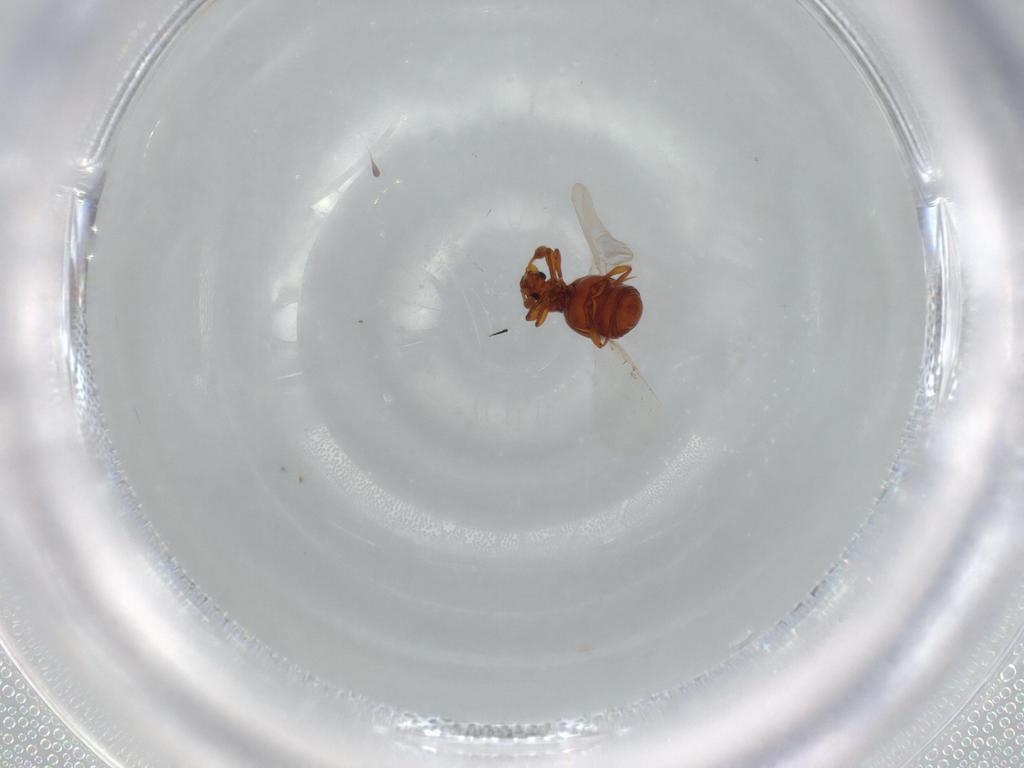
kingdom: Animalia
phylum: Arthropoda
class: Insecta
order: Coleoptera
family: Staphylinidae
